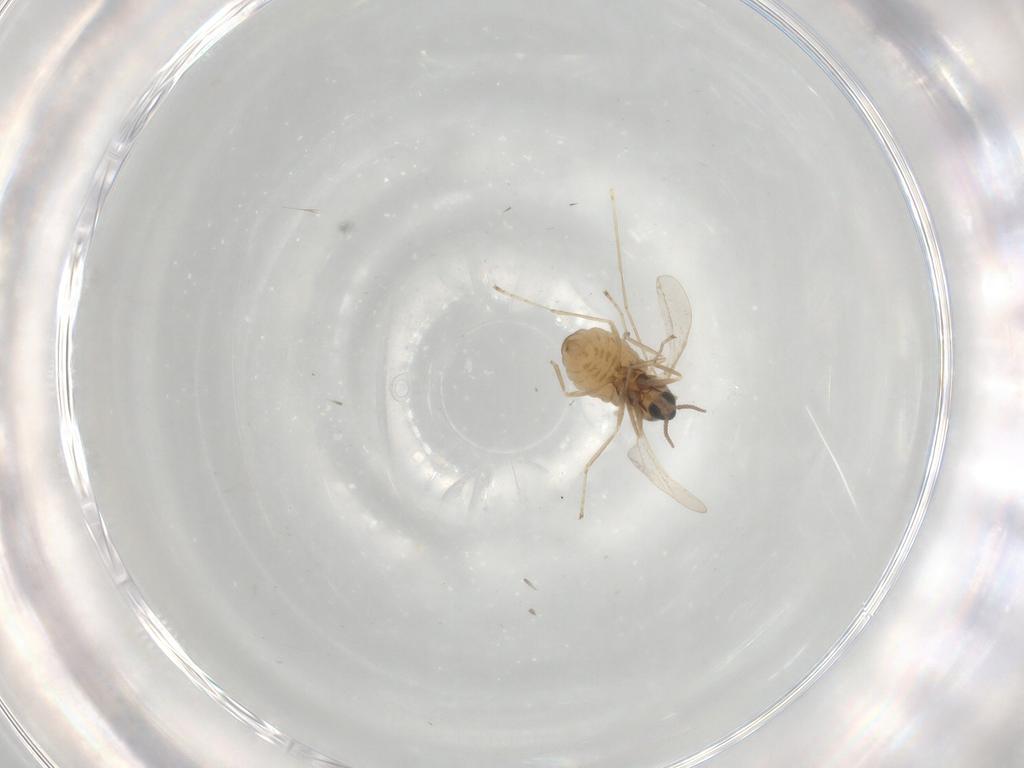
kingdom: Animalia
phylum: Arthropoda
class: Insecta
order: Diptera
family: Cecidomyiidae
